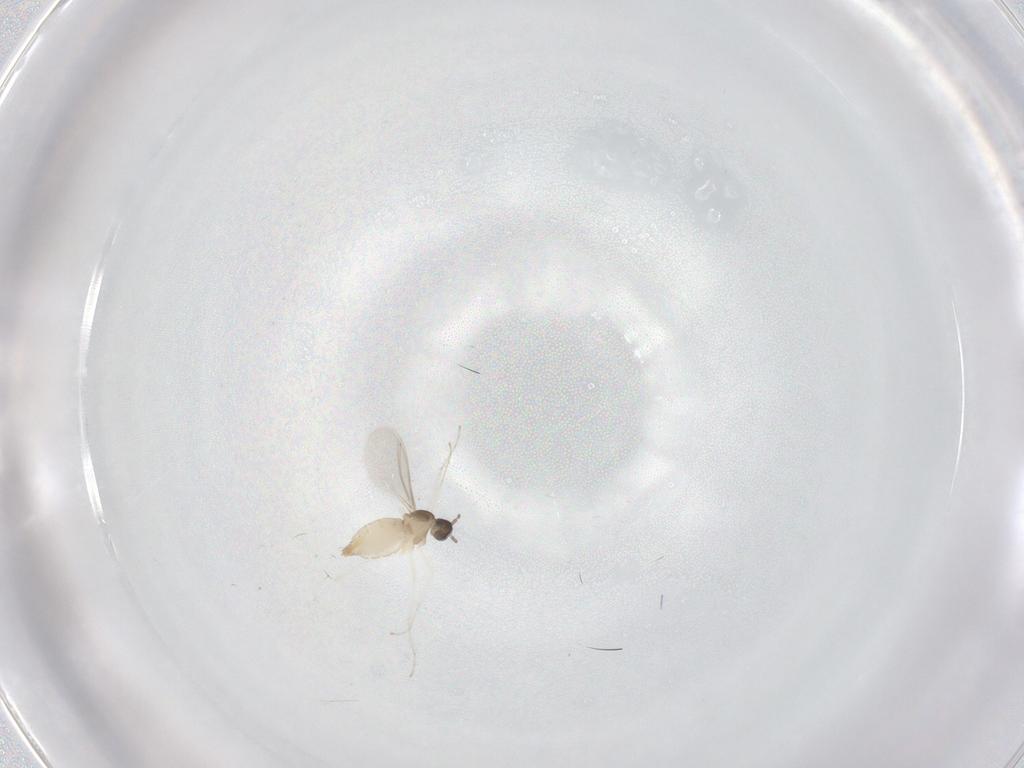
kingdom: Animalia
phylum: Arthropoda
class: Insecta
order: Diptera
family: Cecidomyiidae
